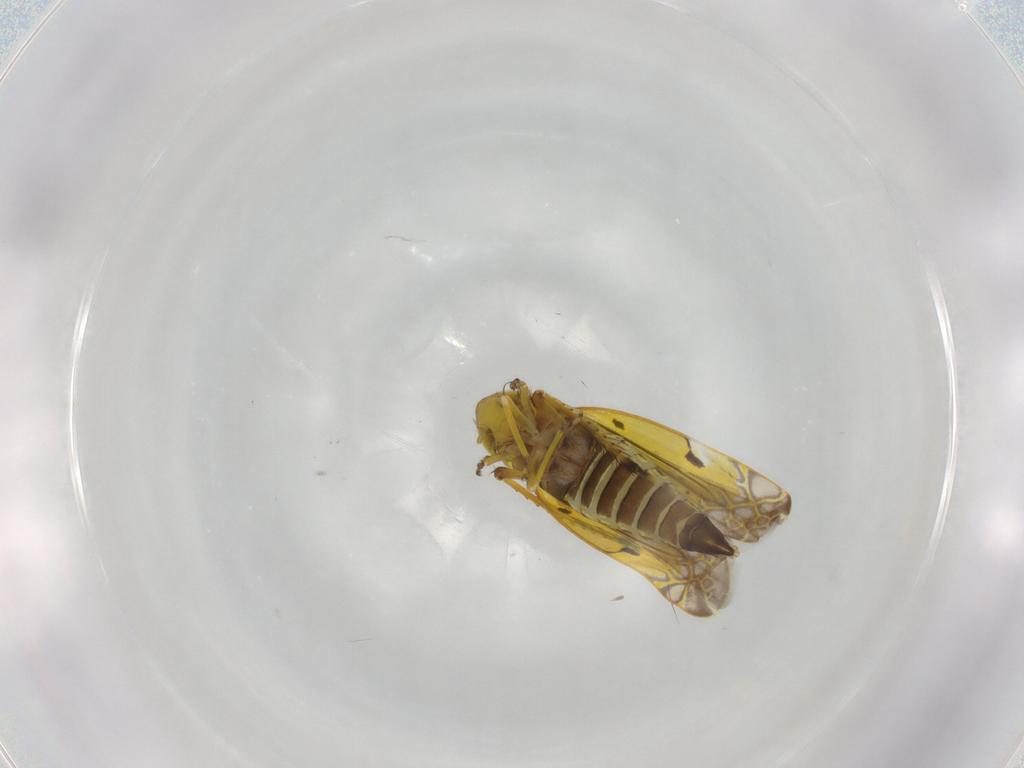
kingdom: Animalia
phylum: Arthropoda
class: Insecta
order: Hemiptera
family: Cicadellidae
